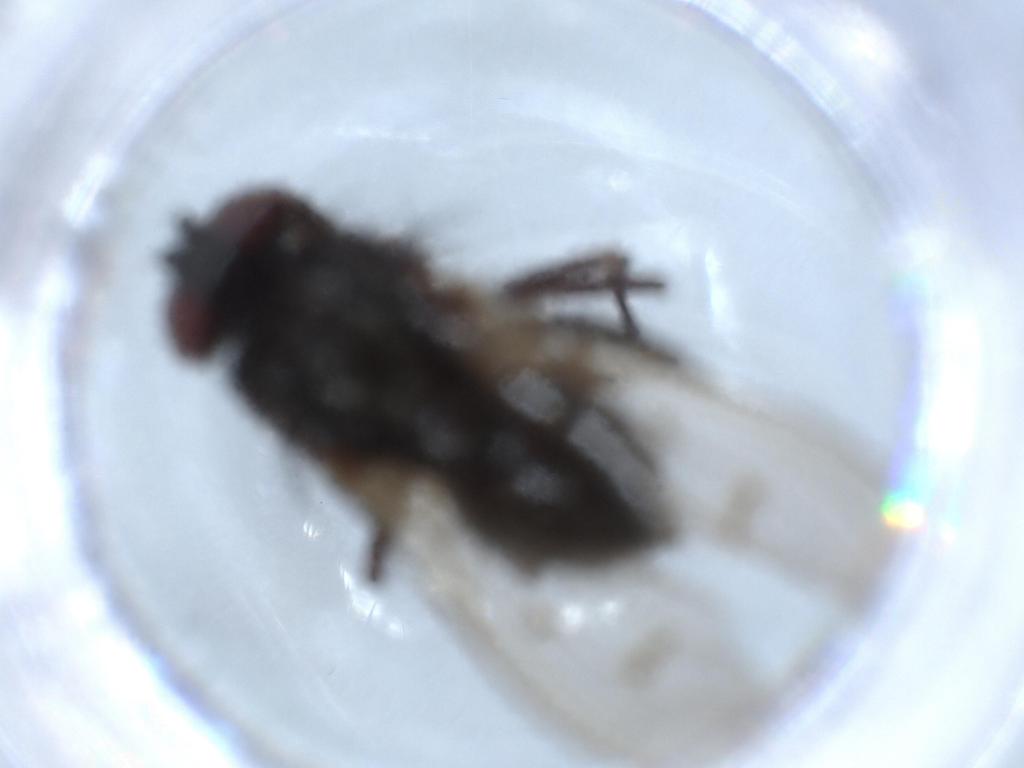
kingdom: Animalia
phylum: Arthropoda
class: Insecta
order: Diptera
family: Muscidae
